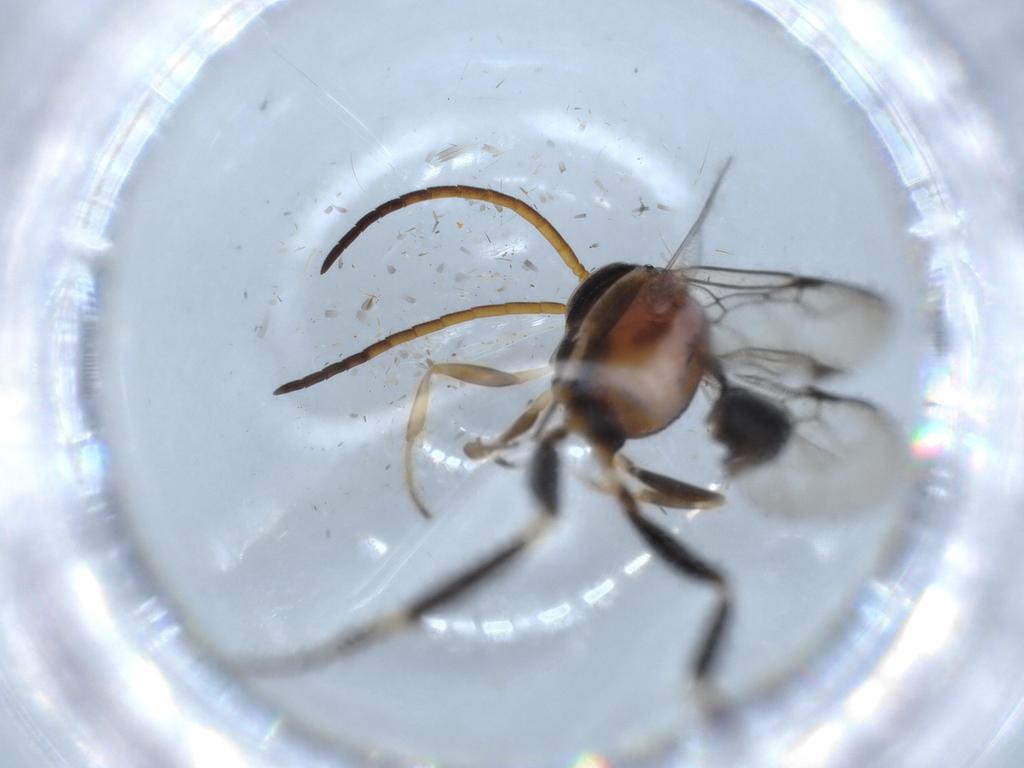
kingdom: Animalia
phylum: Arthropoda
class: Insecta
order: Hymenoptera
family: Evaniidae
